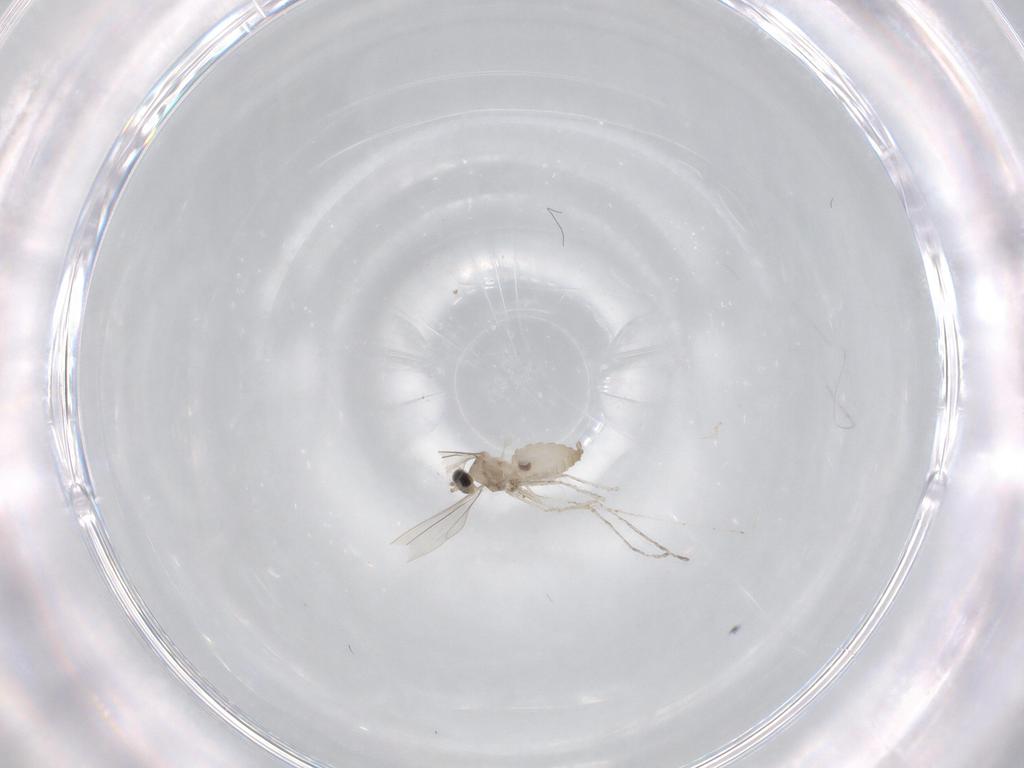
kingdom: Animalia
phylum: Arthropoda
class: Insecta
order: Diptera
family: Cecidomyiidae
